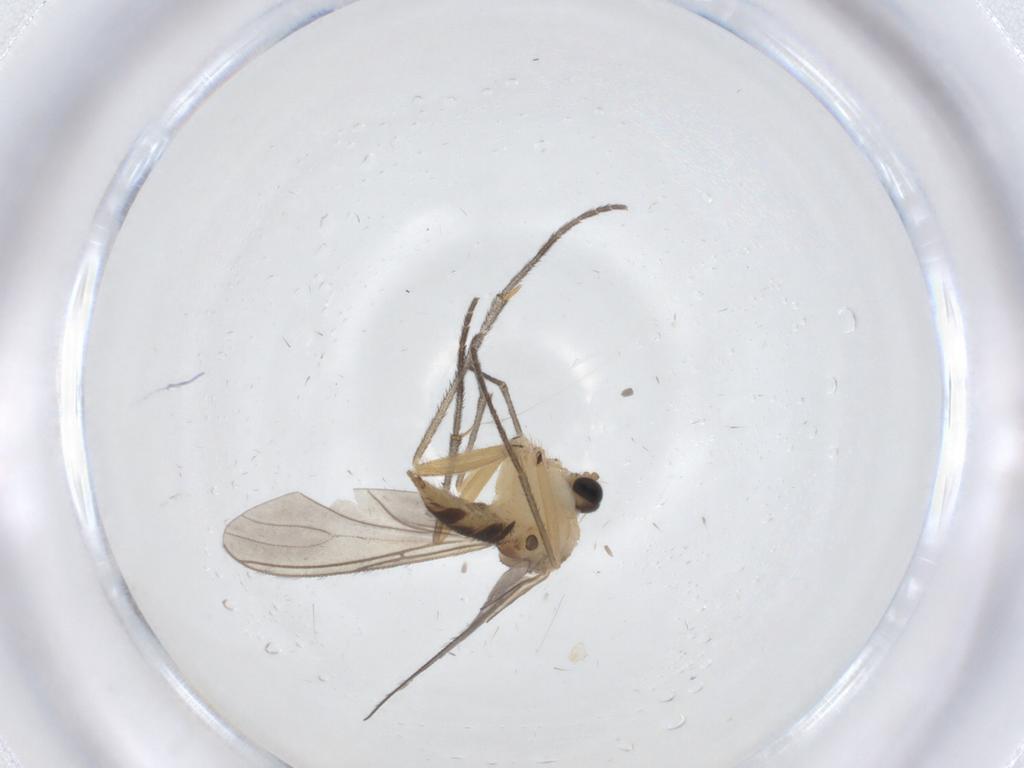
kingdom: Animalia
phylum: Arthropoda
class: Insecta
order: Diptera
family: Sciaridae
